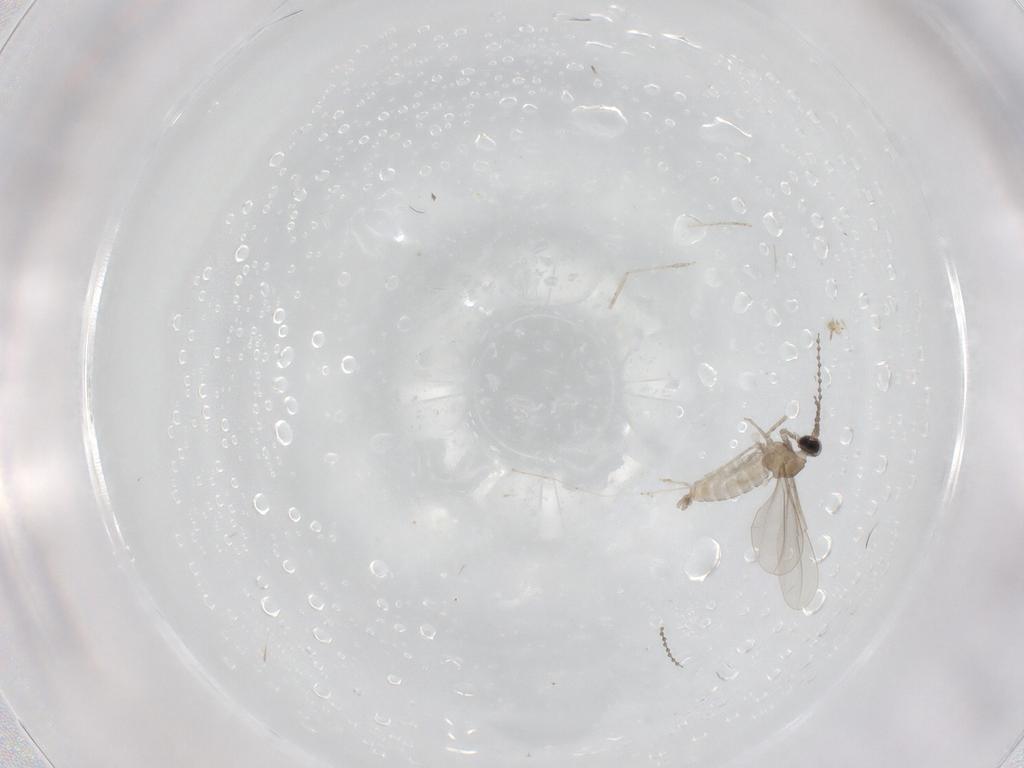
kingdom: Animalia
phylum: Arthropoda
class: Insecta
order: Diptera
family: Cecidomyiidae
